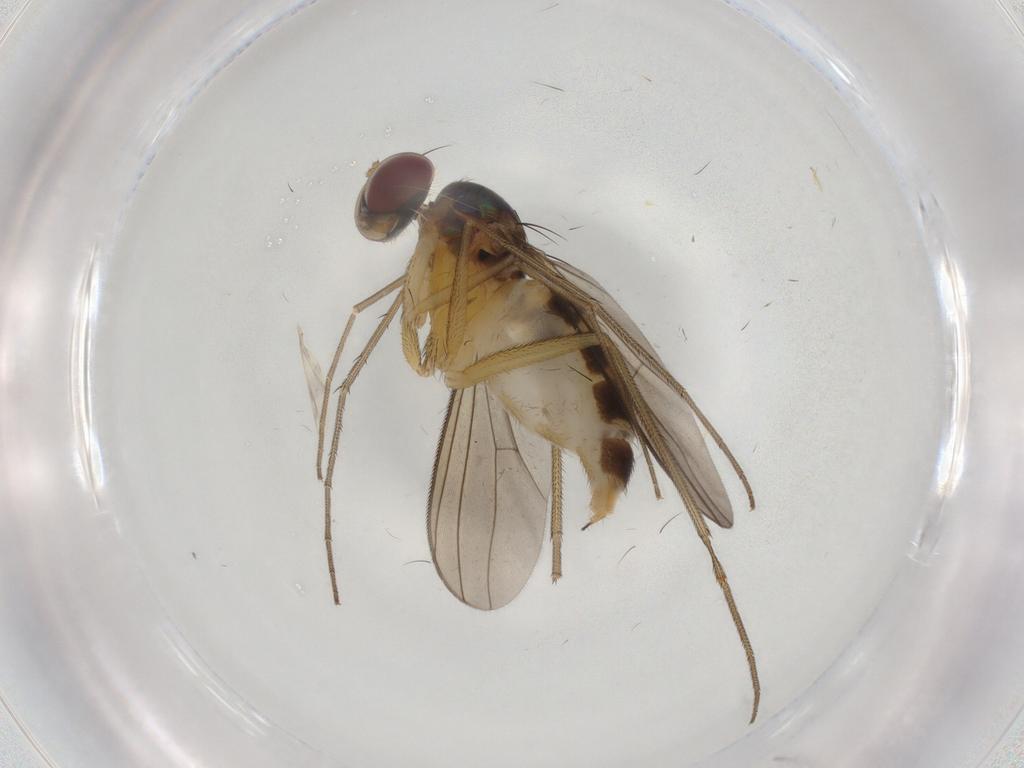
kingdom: Animalia
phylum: Arthropoda
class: Insecta
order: Diptera
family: Dolichopodidae
